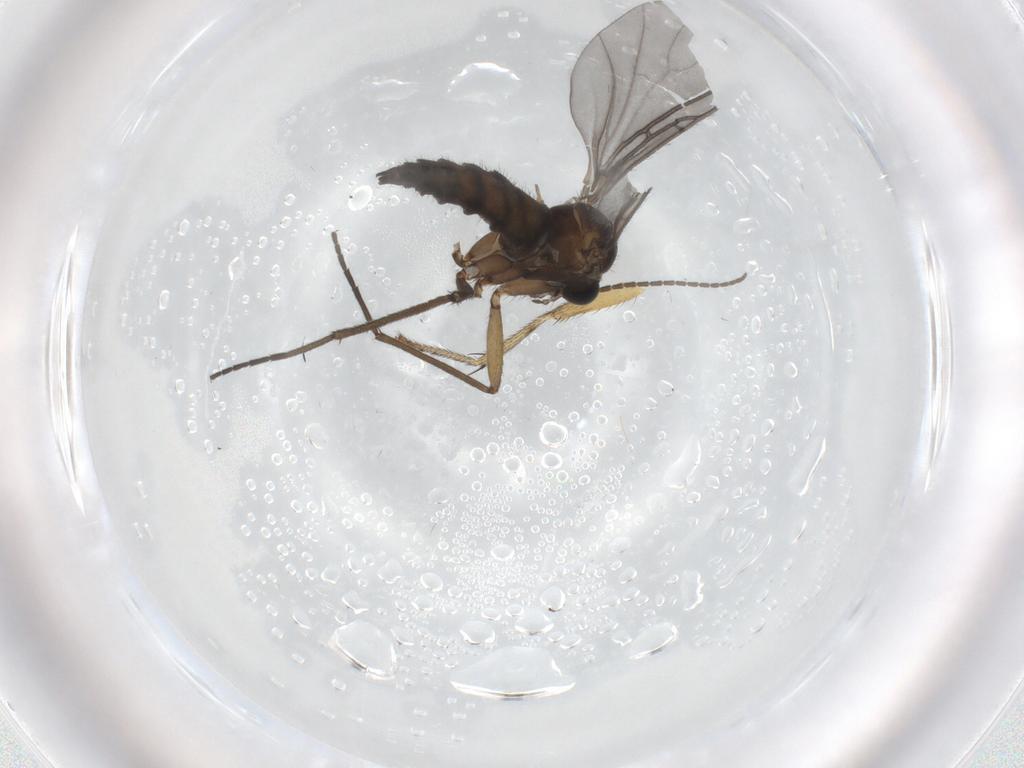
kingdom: Animalia
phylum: Arthropoda
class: Insecta
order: Diptera
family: Sciaridae
